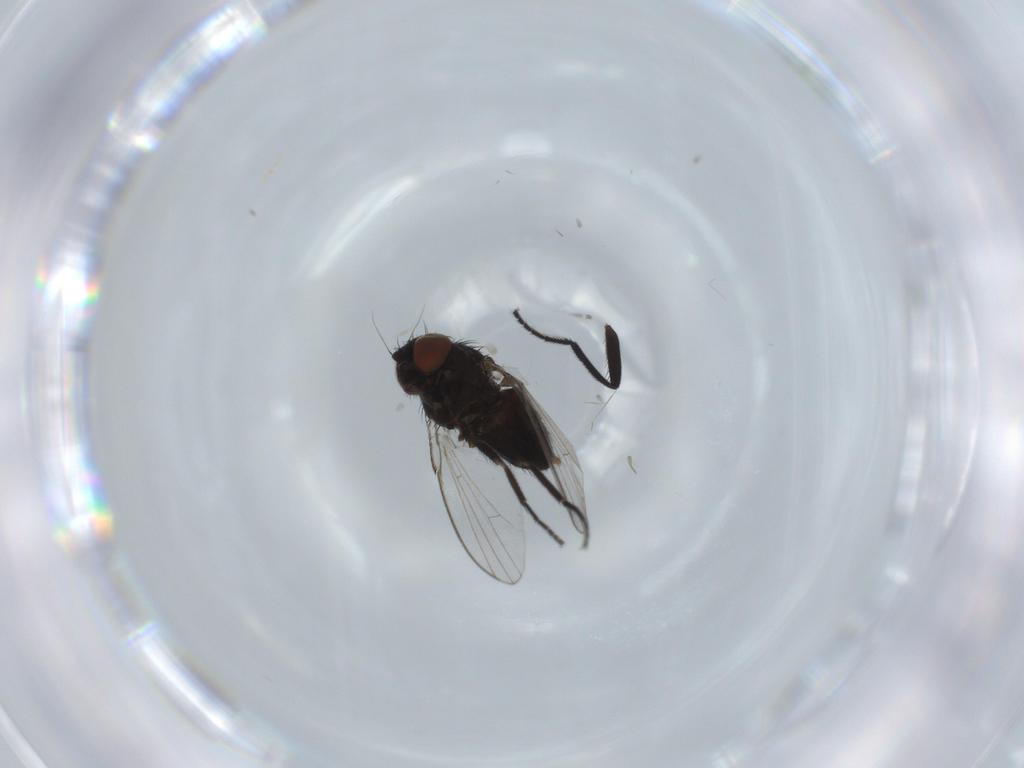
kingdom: Animalia
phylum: Arthropoda
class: Insecta
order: Diptera
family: Milichiidae
